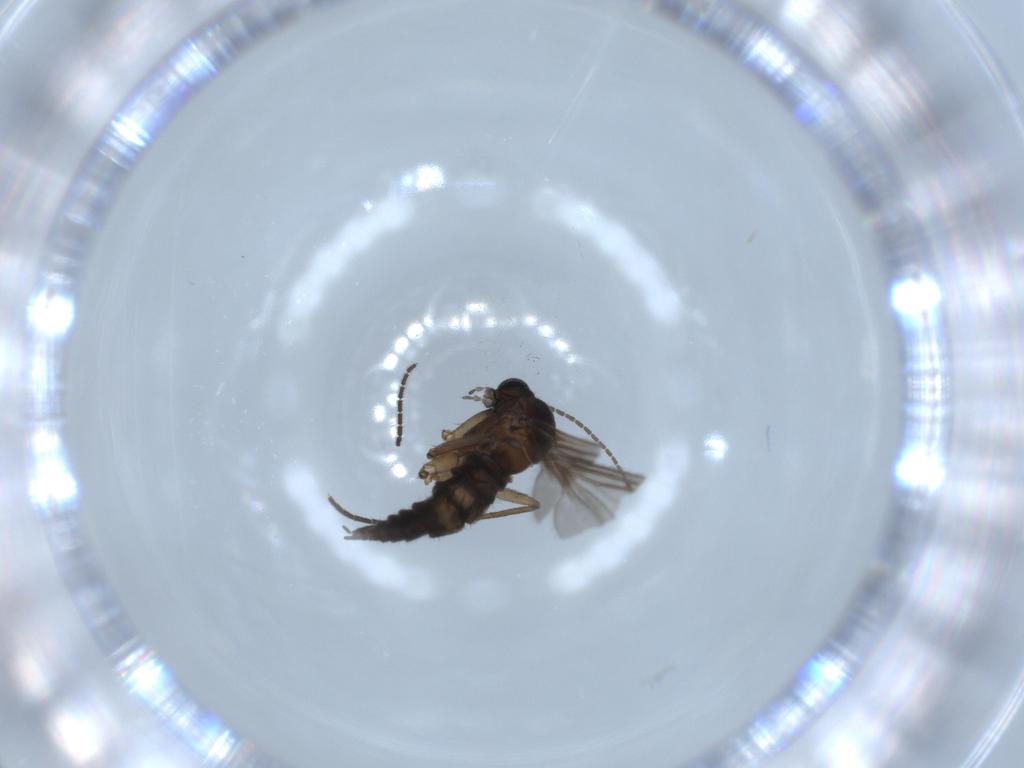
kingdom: Animalia
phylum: Arthropoda
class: Insecta
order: Diptera
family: Sciaridae
